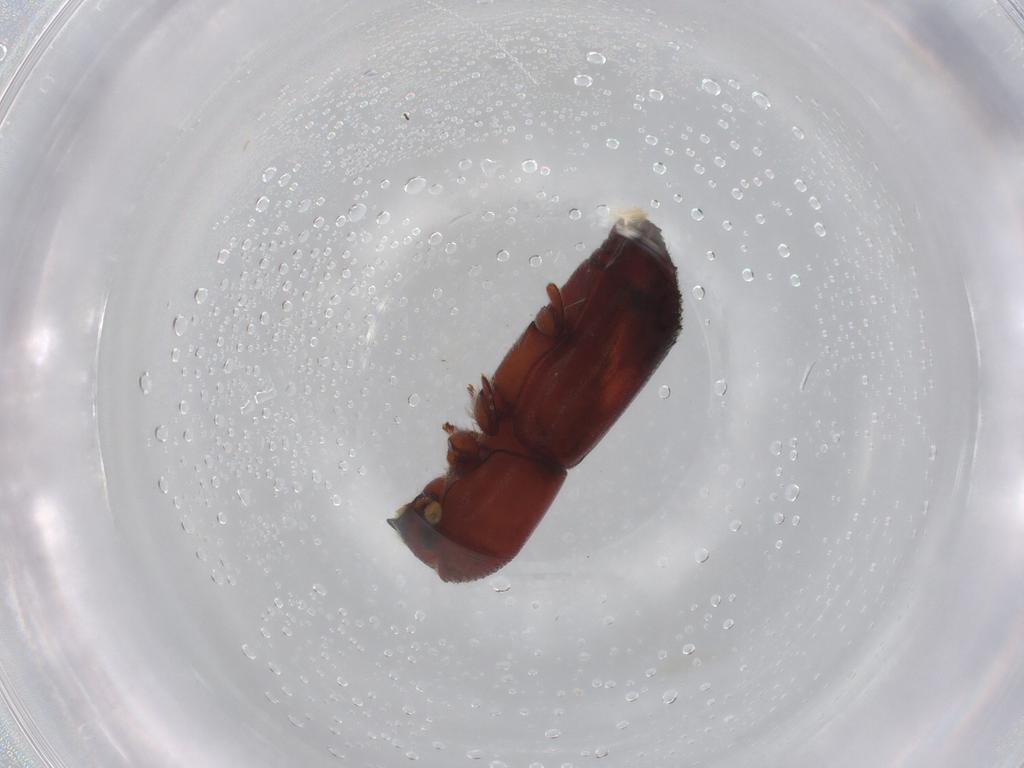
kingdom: Animalia
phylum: Arthropoda
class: Insecta
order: Coleoptera
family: Curculionidae
